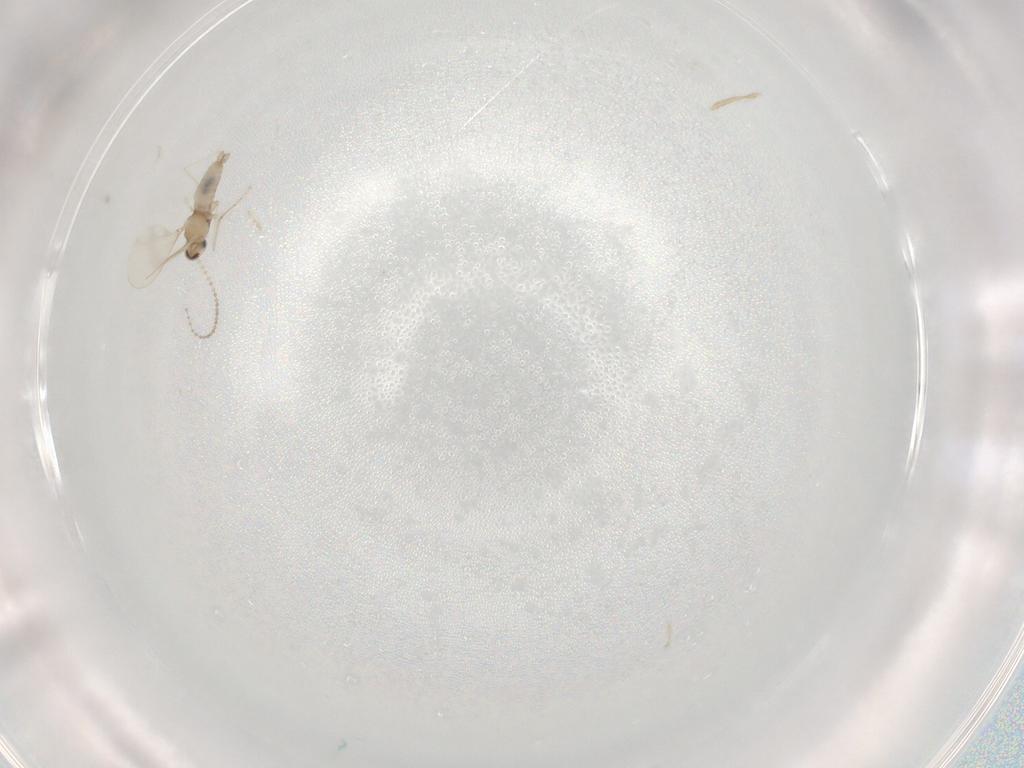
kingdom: Animalia
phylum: Arthropoda
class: Insecta
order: Diptera
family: Cecidomyiidae
